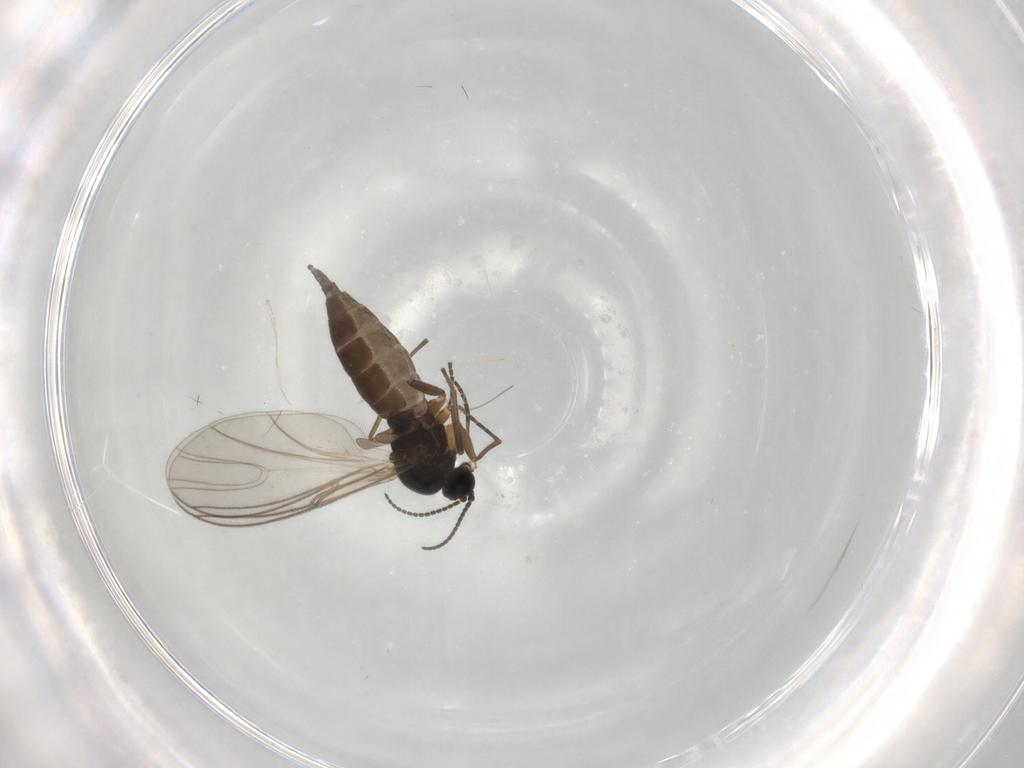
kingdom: Animalia
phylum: Arthropoda
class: Insecta
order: Diptera
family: Sciaridae
